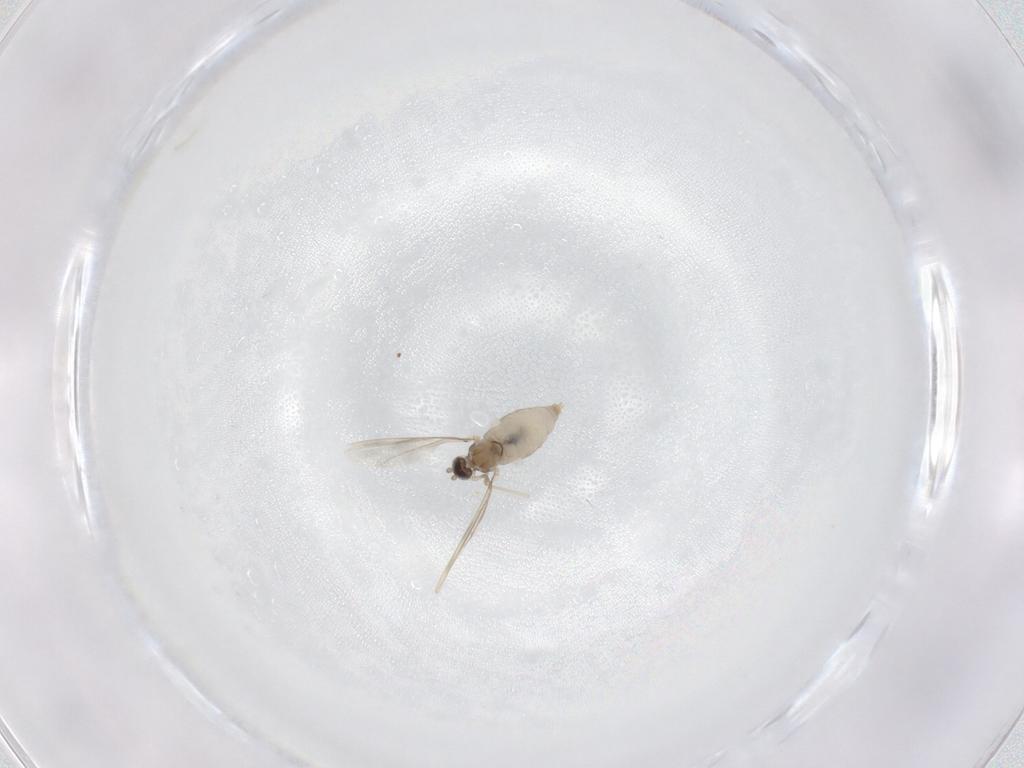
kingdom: Animalia
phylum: Arthropoda
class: Insecta
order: Diptera
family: Cecidomyiidae
